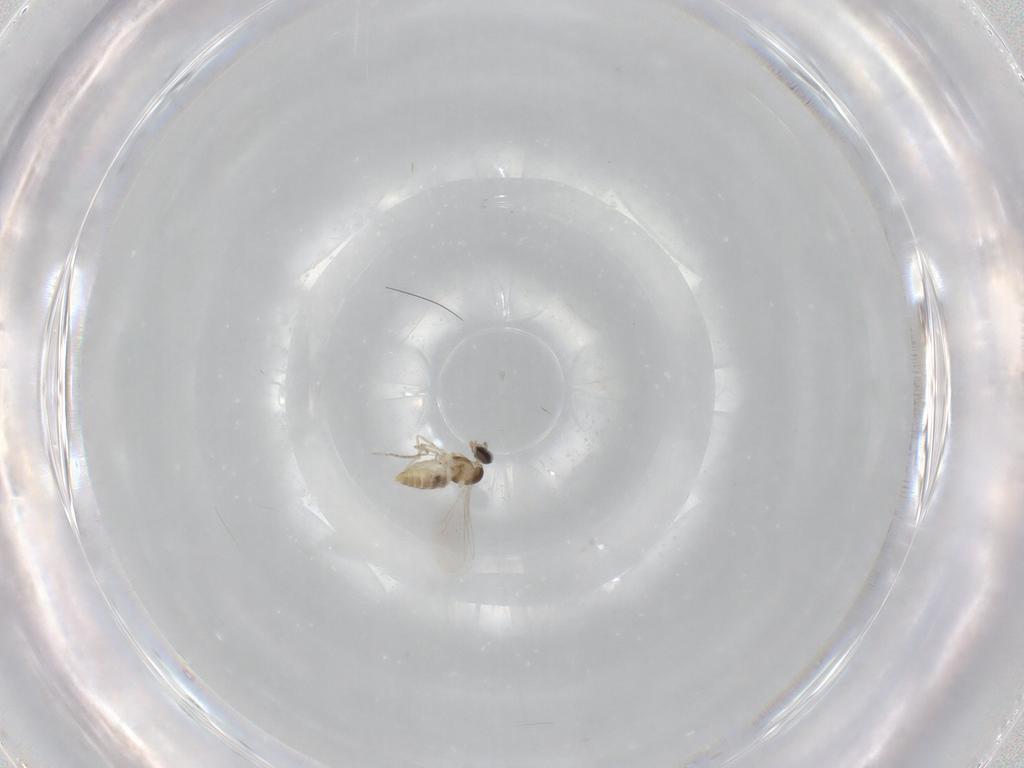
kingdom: Animalia
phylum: Arthropoda
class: Insecta
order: Diptera
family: Cecidomyiidae
